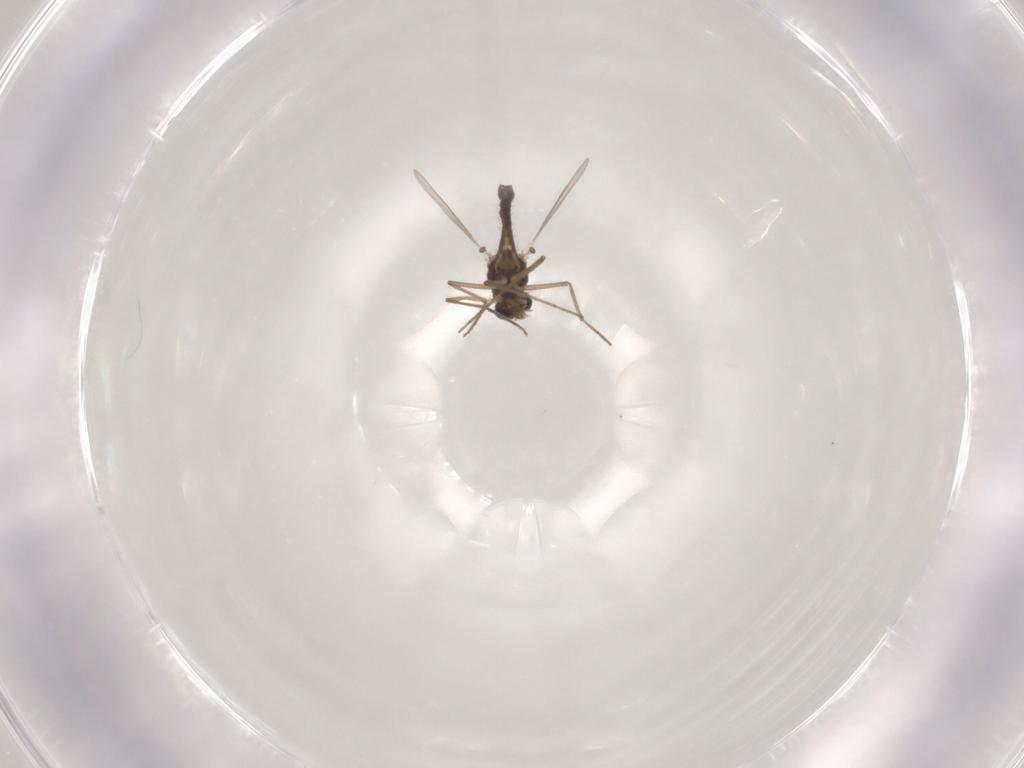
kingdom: Animalia
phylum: Arthropoda
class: Insecta
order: Diptera
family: Chironomidae
